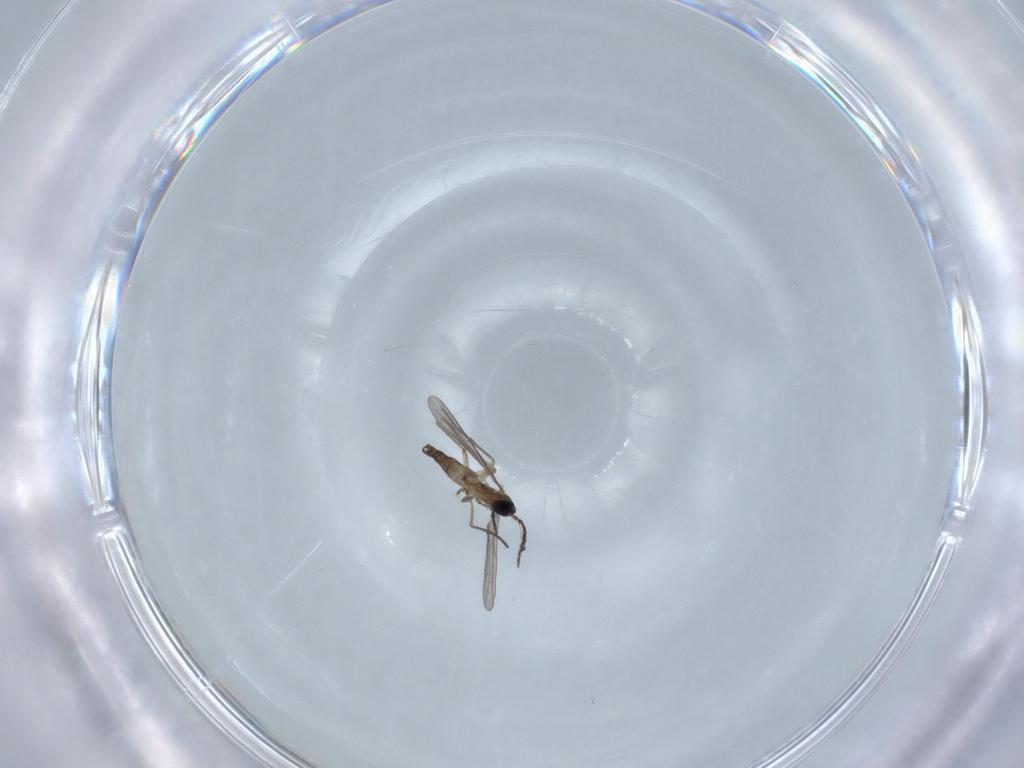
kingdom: Animalia
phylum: Arthropoda
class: Insecta
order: Diptera
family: Sciaridae
